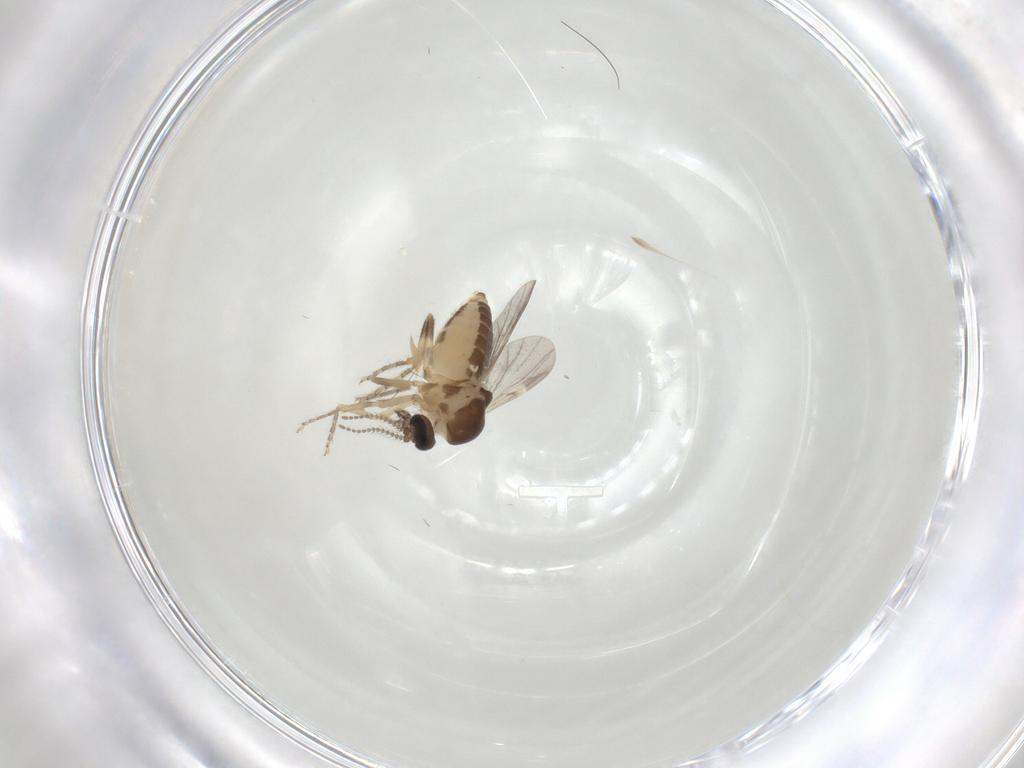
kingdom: Animalia
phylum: Arthropoda
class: Insecta
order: Diptera
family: Ceratopogonidae
